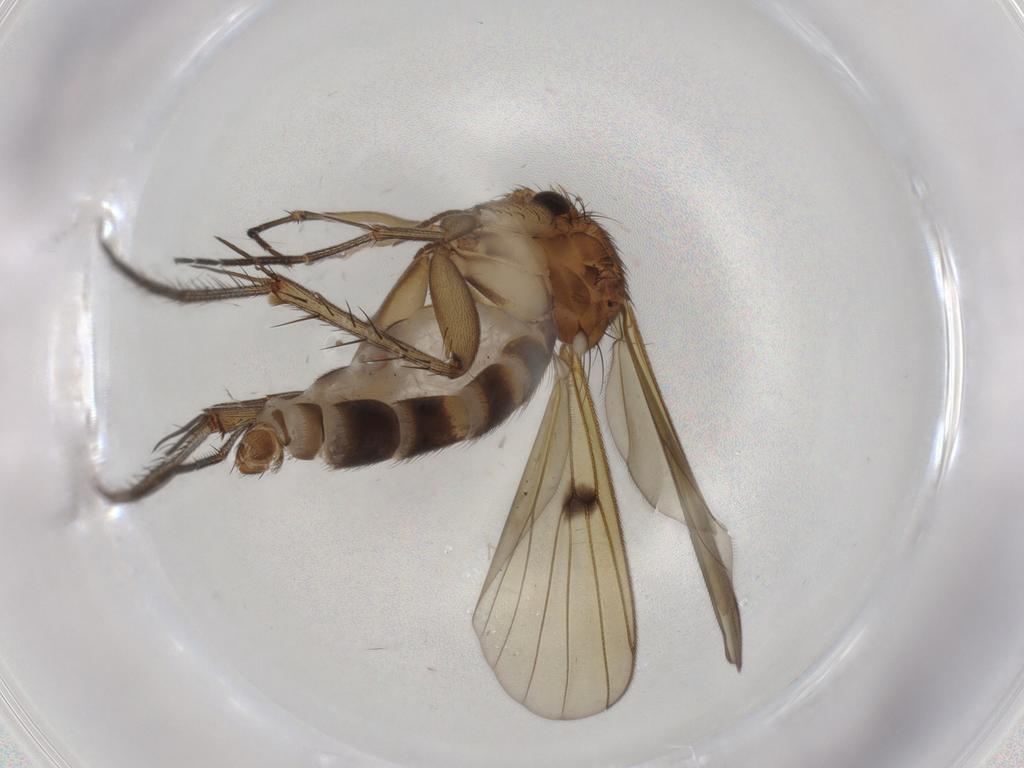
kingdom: Animalia
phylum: Arthropoda
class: Insecta
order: Diptera
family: Mycetophilidae
